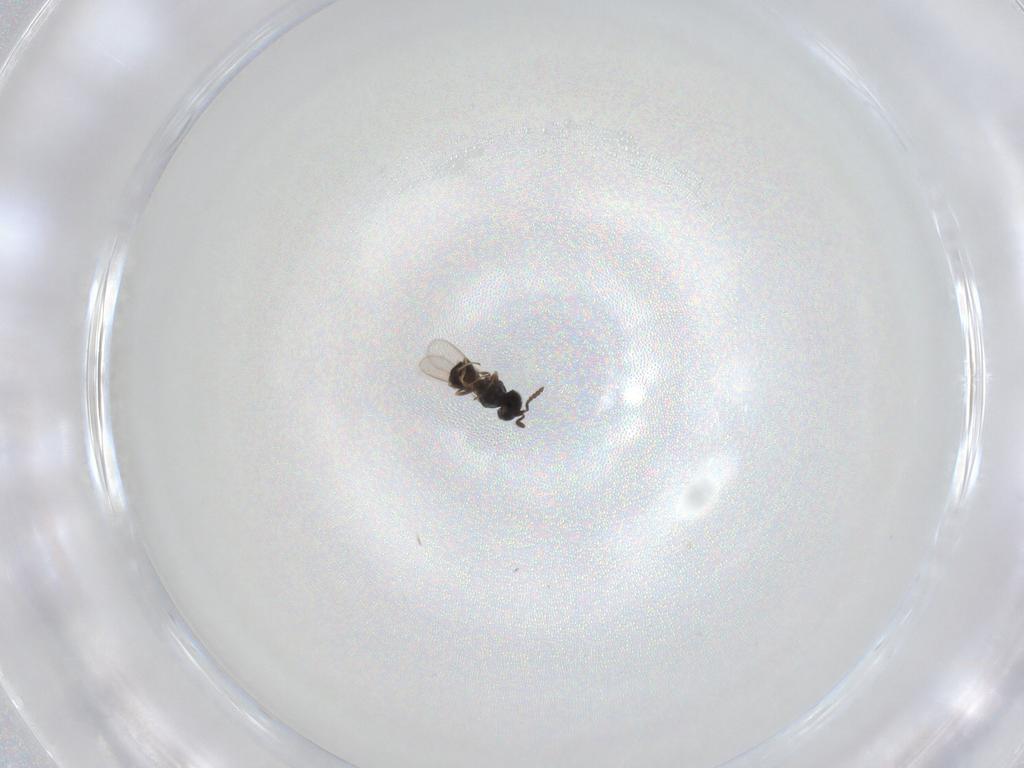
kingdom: Animalia
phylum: Arthropoda
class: Insecta
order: Hymenoptera
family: Scelionidae
